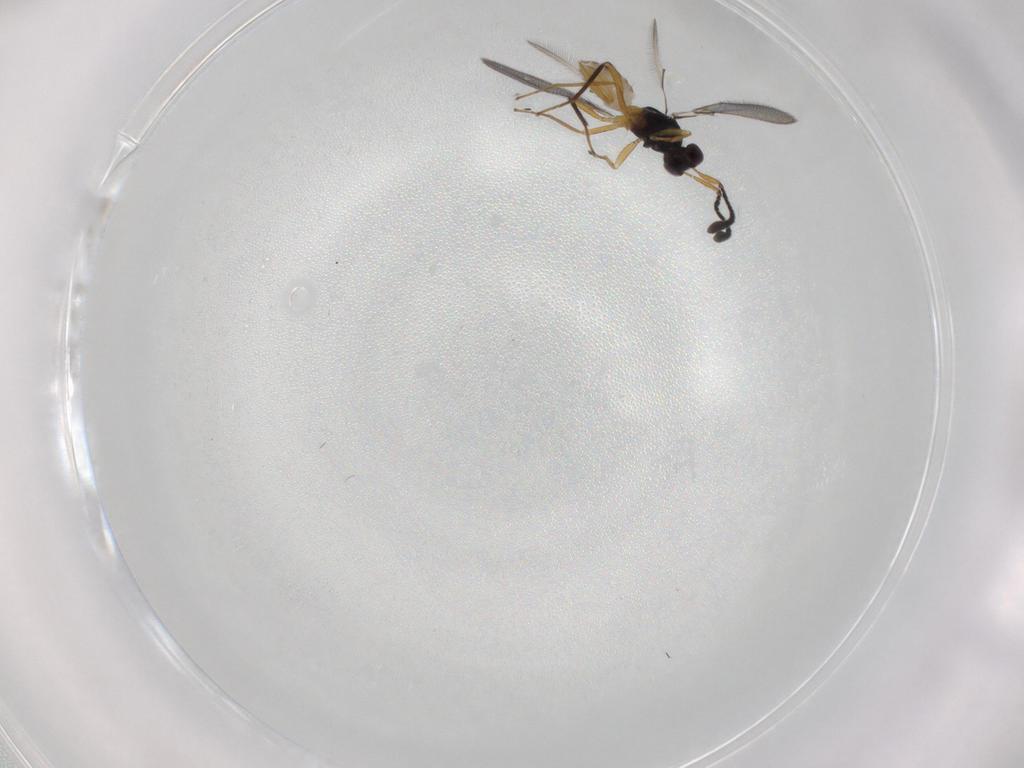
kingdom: Animalia
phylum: Arthropoda
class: Insecta
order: Hymenoptera
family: Mymaridae
